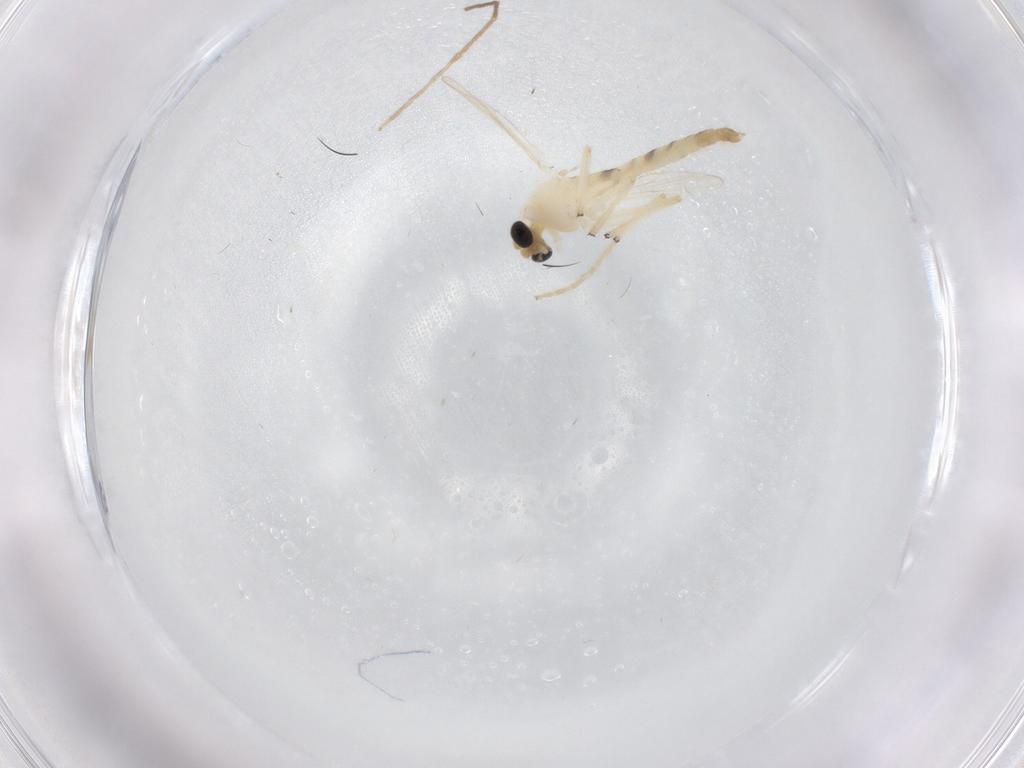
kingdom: Animalia
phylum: Arthropoda
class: Insecta
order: Diptera
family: Chironomidae
